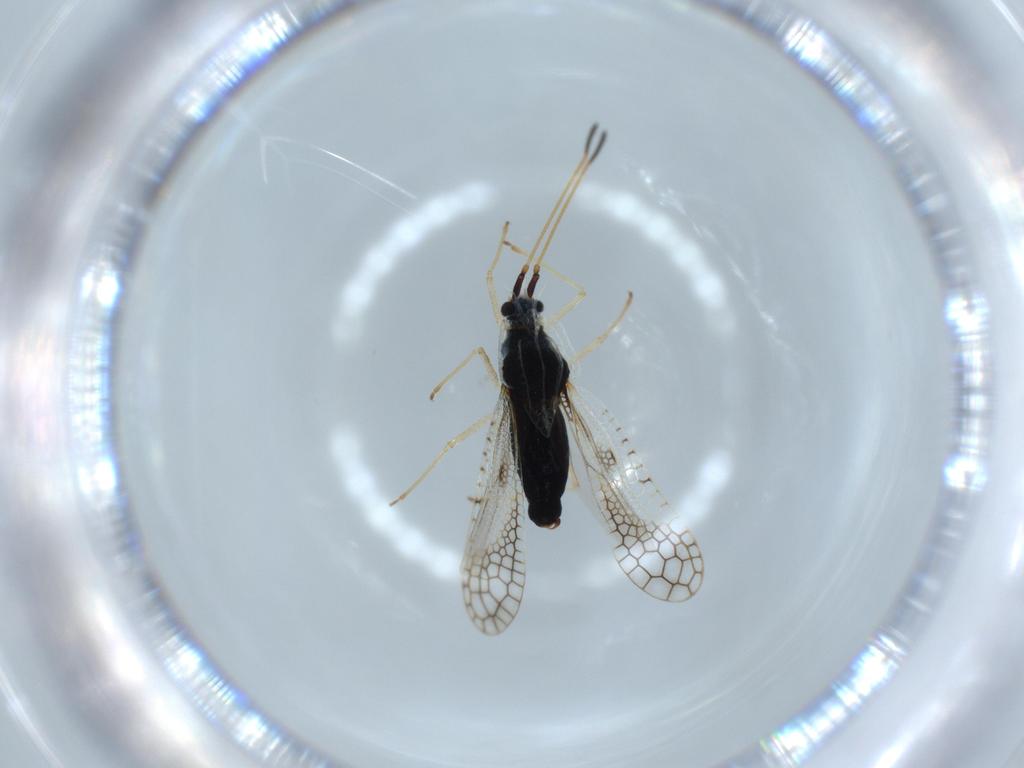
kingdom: Animalia
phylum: Arthropoda
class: Insecta
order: Hemiptera
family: Tingidae
